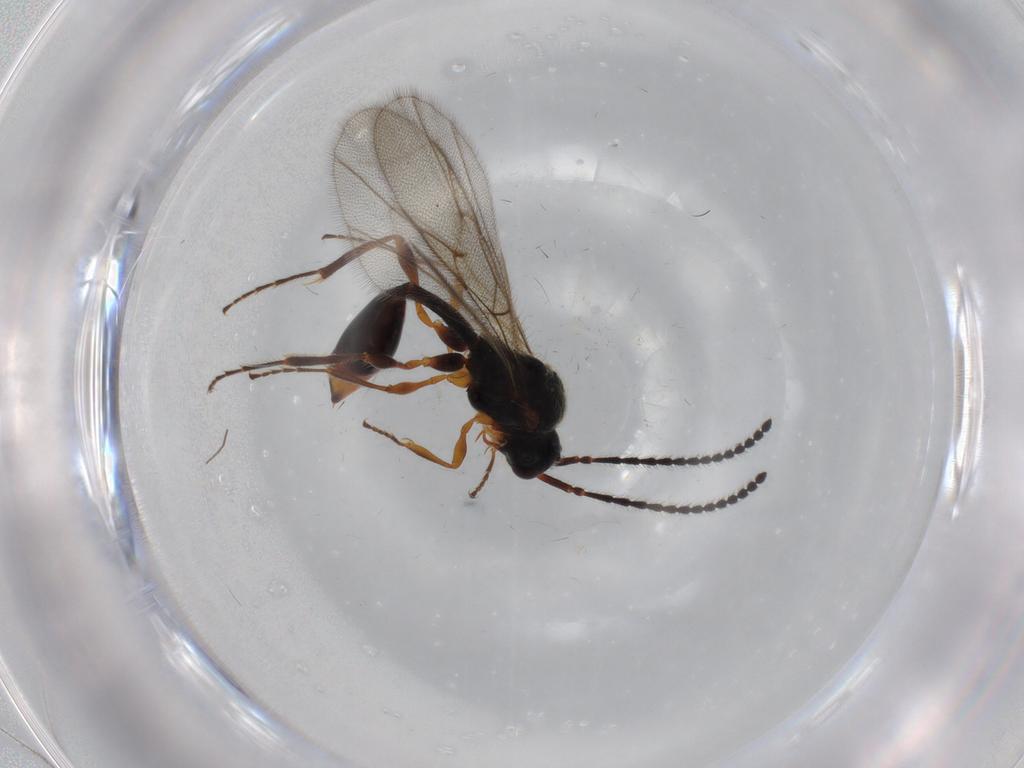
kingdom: Animalia
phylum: Arthropoda
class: Insecta
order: Hymenoptera
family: Diapriidae
